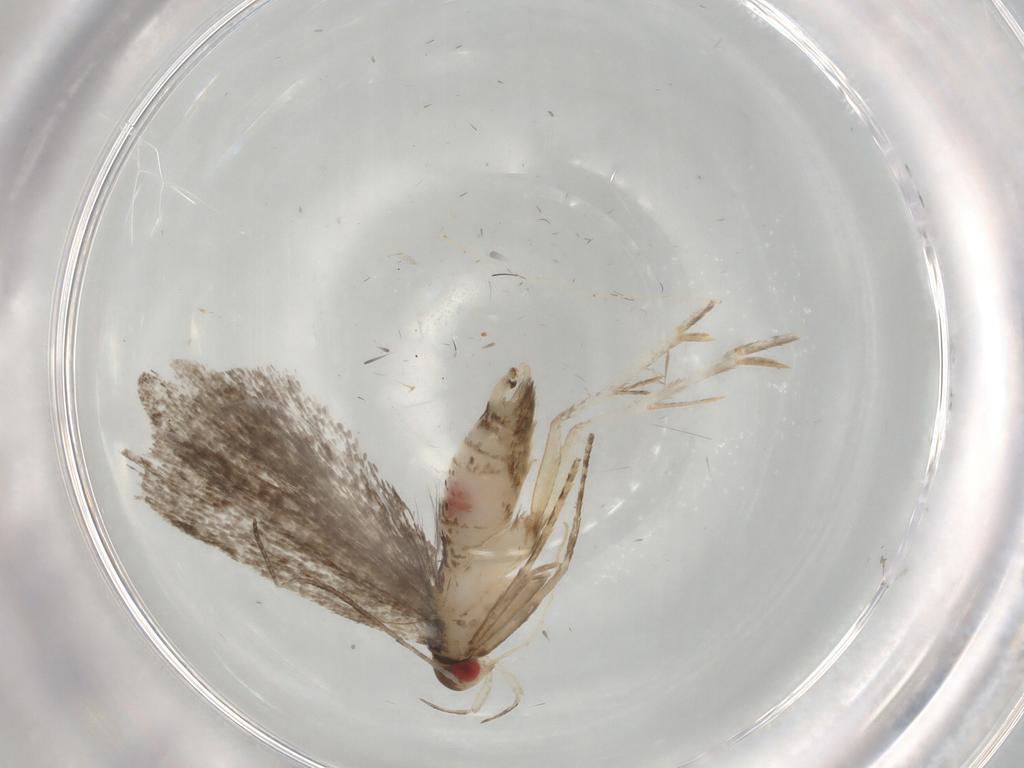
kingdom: Animalia
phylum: Arthropoda
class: Insecta
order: Lepidoptera
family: Gelechiidae
